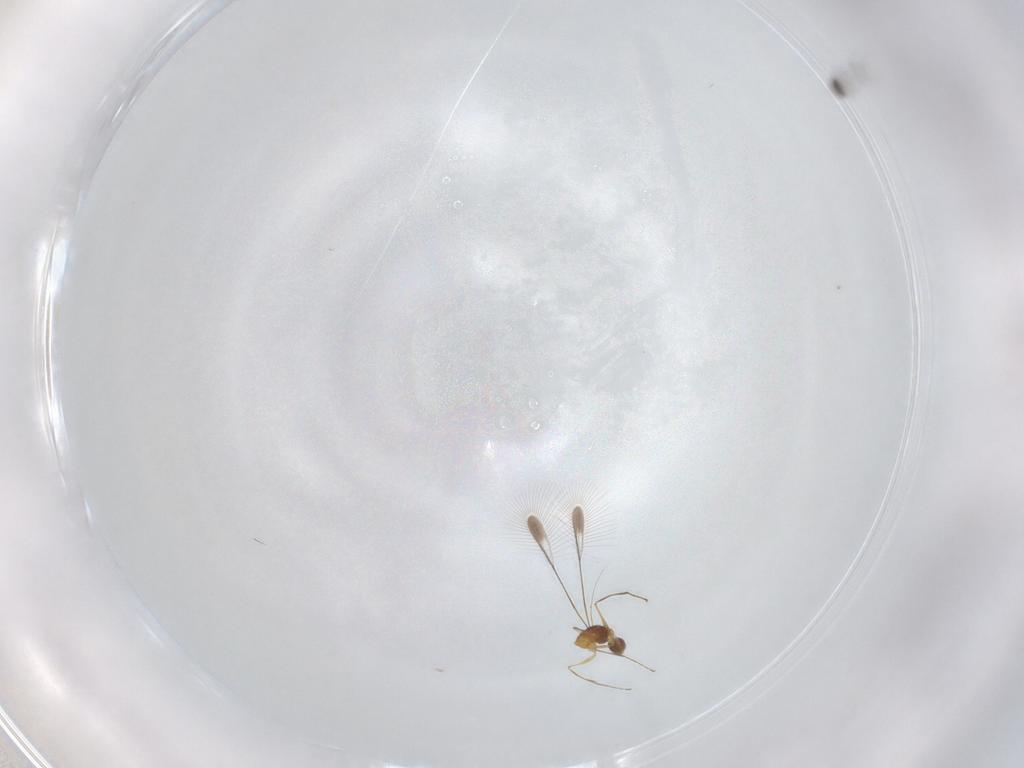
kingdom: Animalia
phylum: Arthropoda
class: Insecta
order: Hymenoptera
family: Mymaridae
